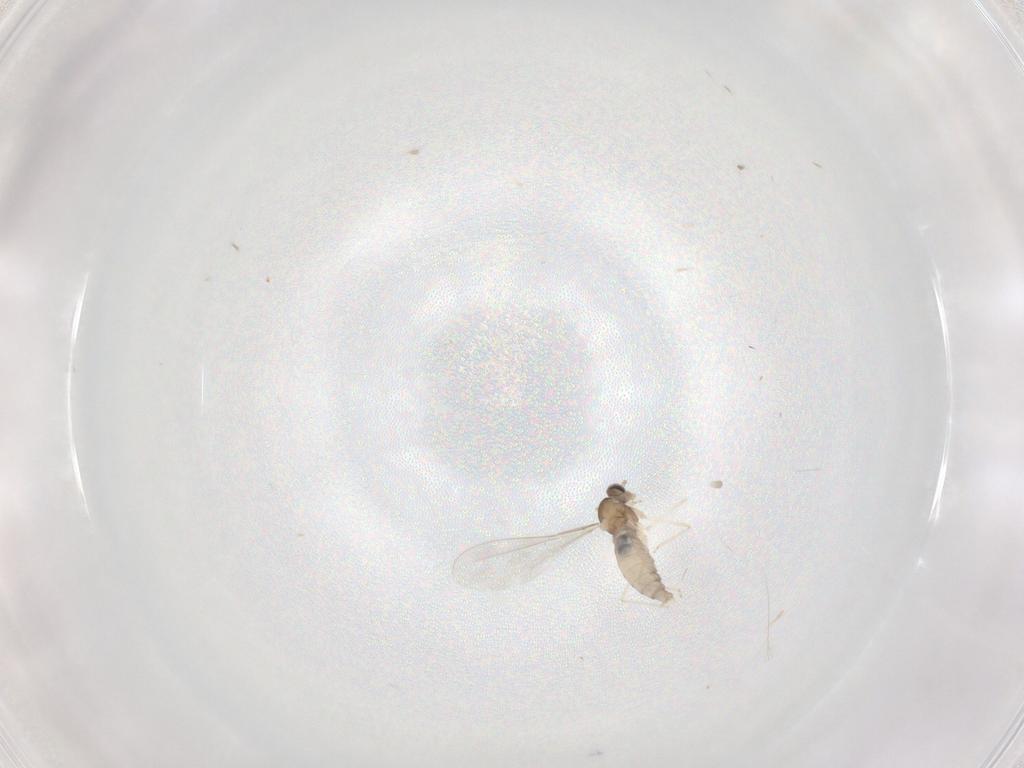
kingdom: Animalia
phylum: Arthropoda
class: Insecta
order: Diptera
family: Cecidomyiidae
